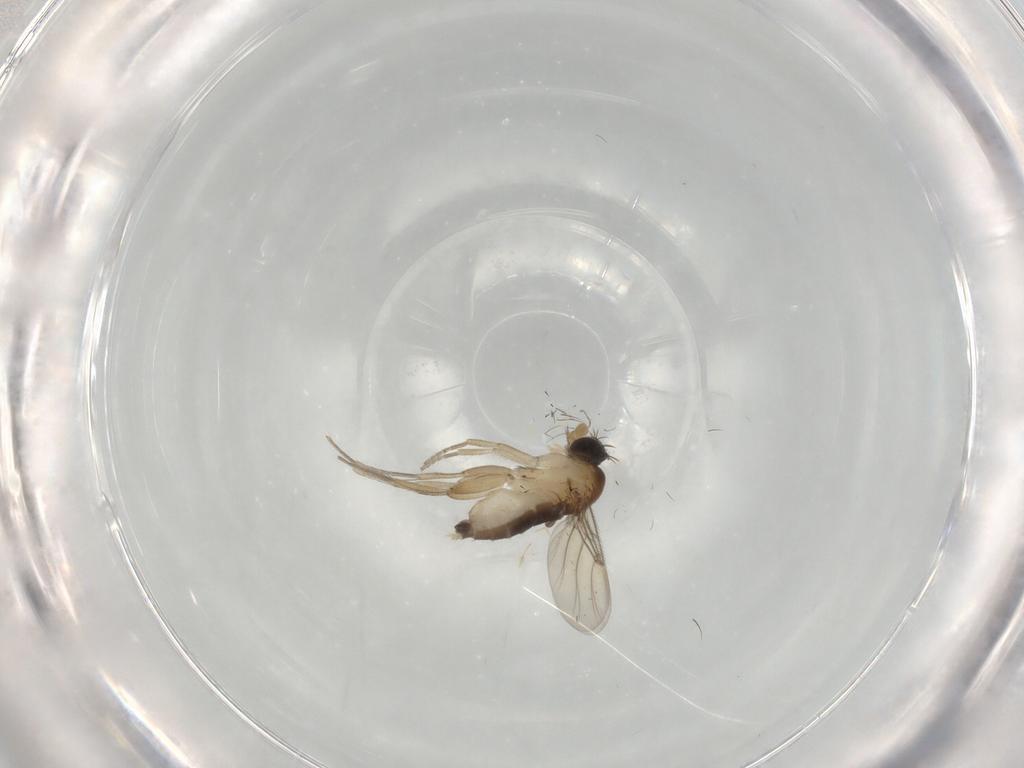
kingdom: Animalia
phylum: Arthropoda
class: Insecta
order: Diptera
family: Phoridae
